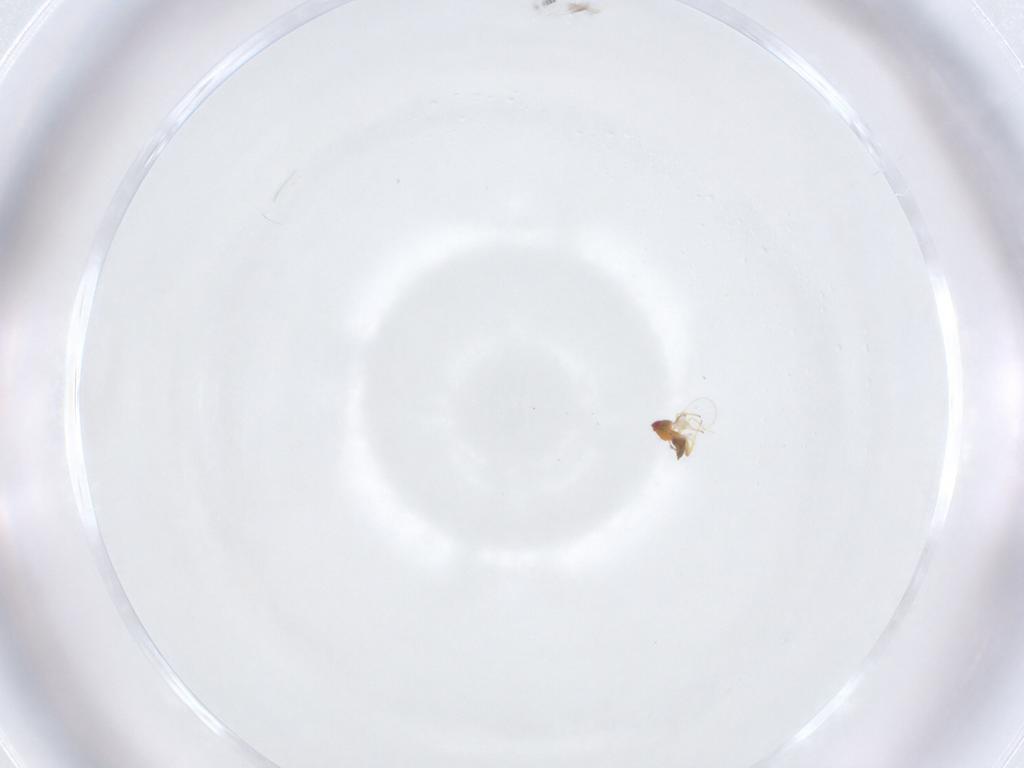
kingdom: Animalia
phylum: Arthropoda
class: Insecta
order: Hymenoptera
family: Trichogrammatidae
